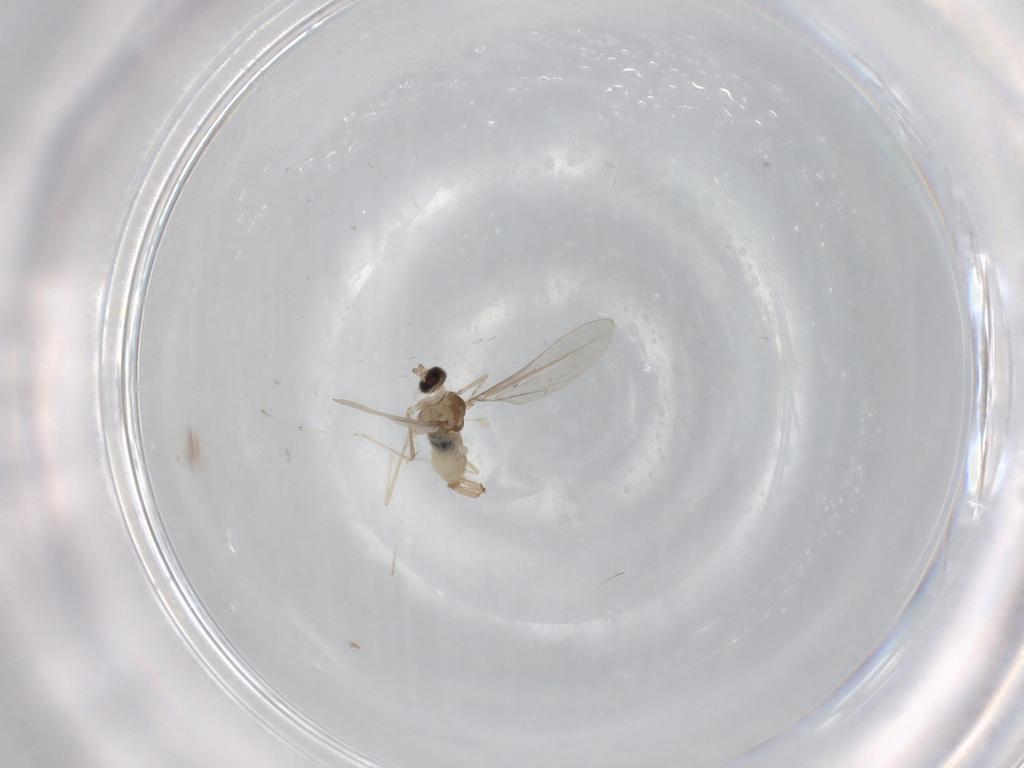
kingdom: Animalia
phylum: Arthropoda
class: Insecta
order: Diptera
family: Cecidomyiidae
